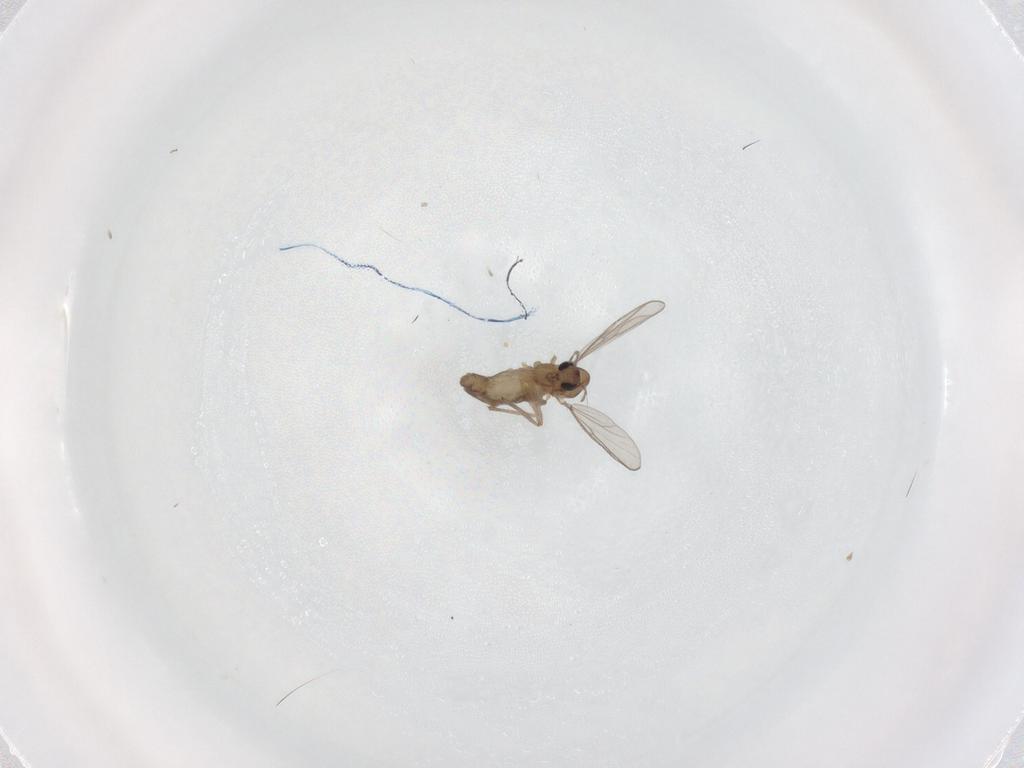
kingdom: Animalia
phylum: Arthropoda
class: Insecta
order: Diptera
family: Chironomidae
